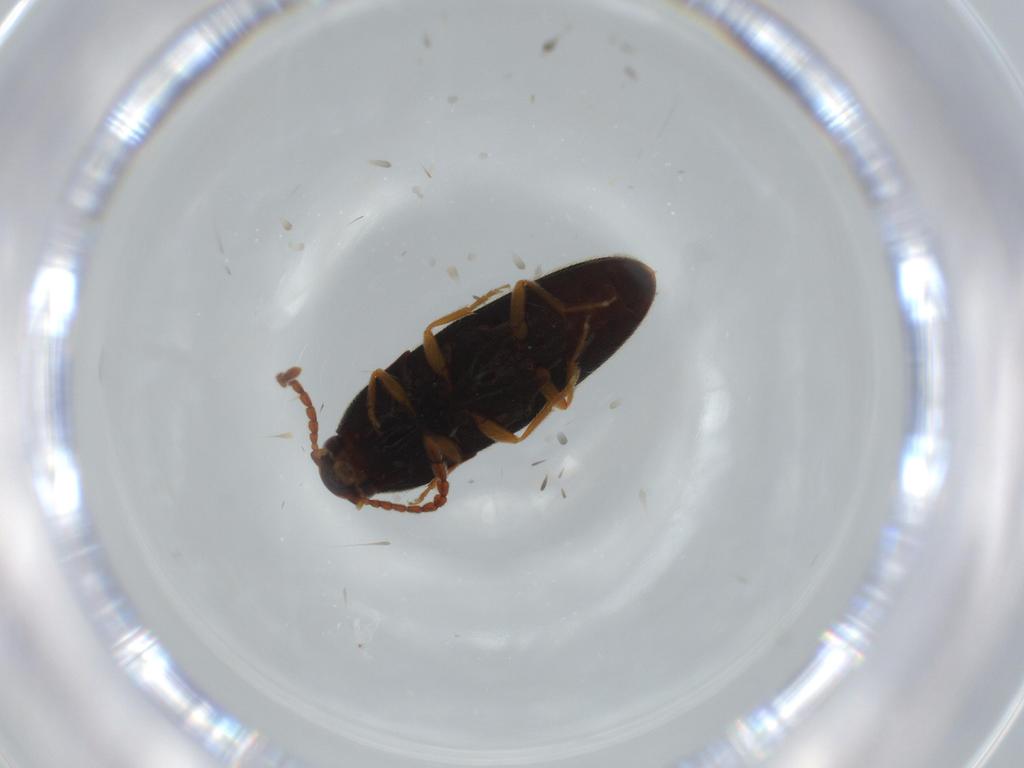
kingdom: Animalia
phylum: Arthropoda
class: Insecta
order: Coleoptera
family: Elateridae
